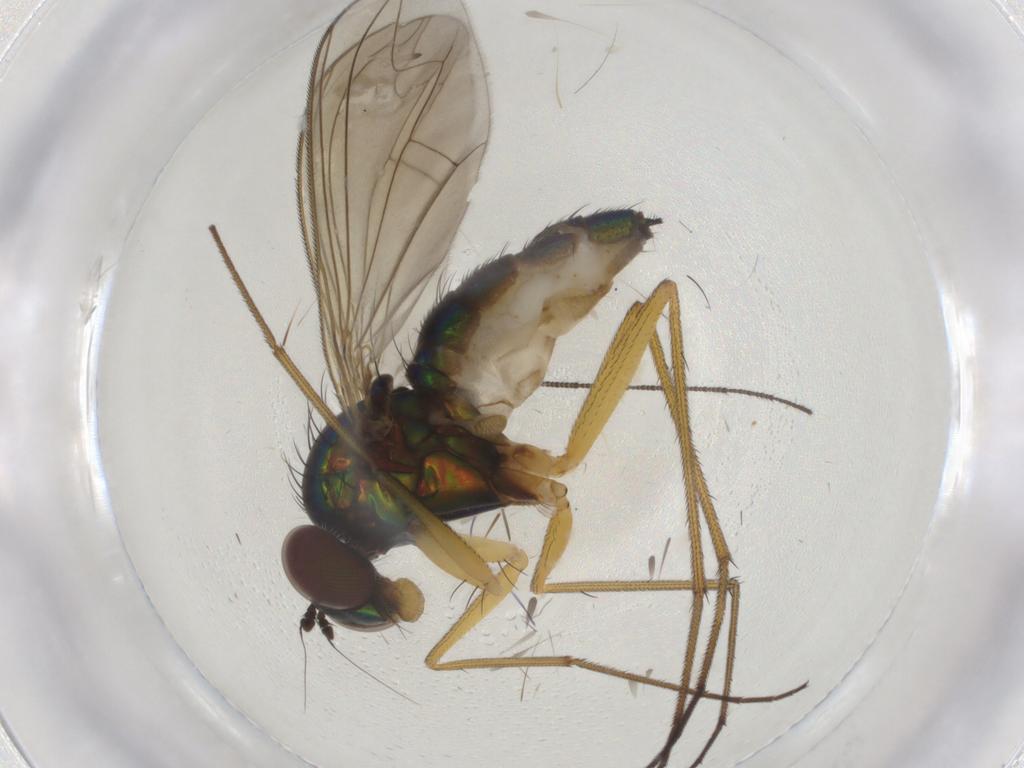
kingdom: Animalia
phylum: Arthropoda
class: Insecta
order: Diptera
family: Dolichopodidae
